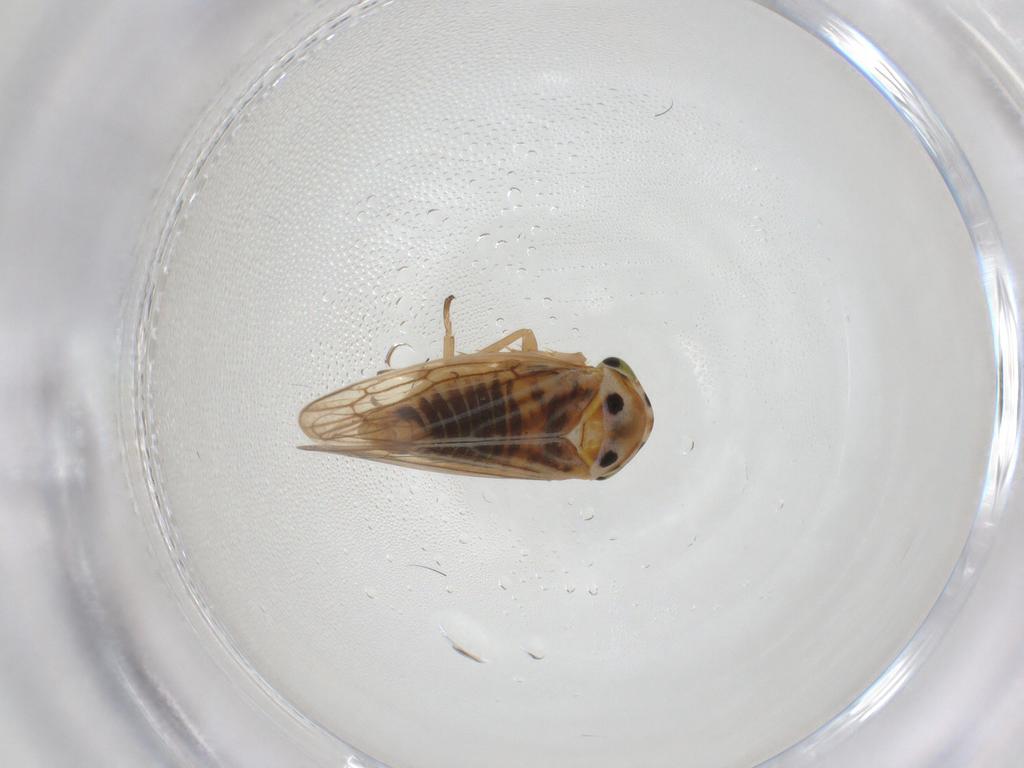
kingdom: Animalia
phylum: Arthropoda
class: Insecta
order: Hemiptera
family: Cicadellidae
